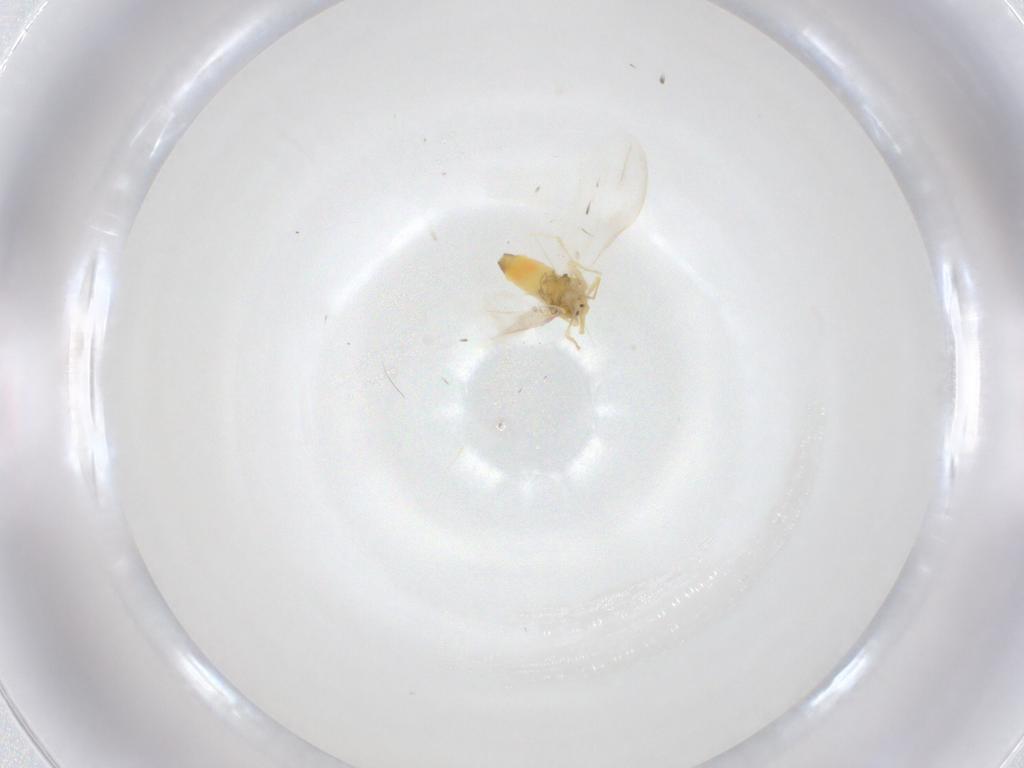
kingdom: Animalia
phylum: Arthropoda
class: Insecta
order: Hemiptera
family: Aleyrodidae
